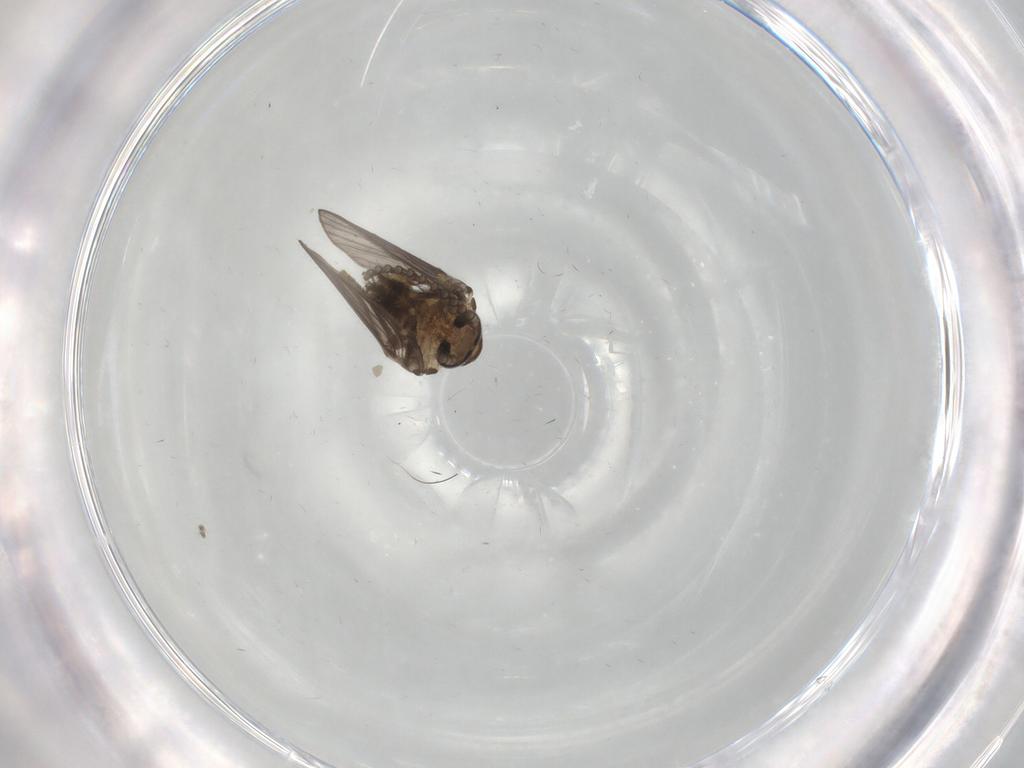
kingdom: Animalia
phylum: Arthropoda
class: Insecta
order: Diptera
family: Psychodidae
